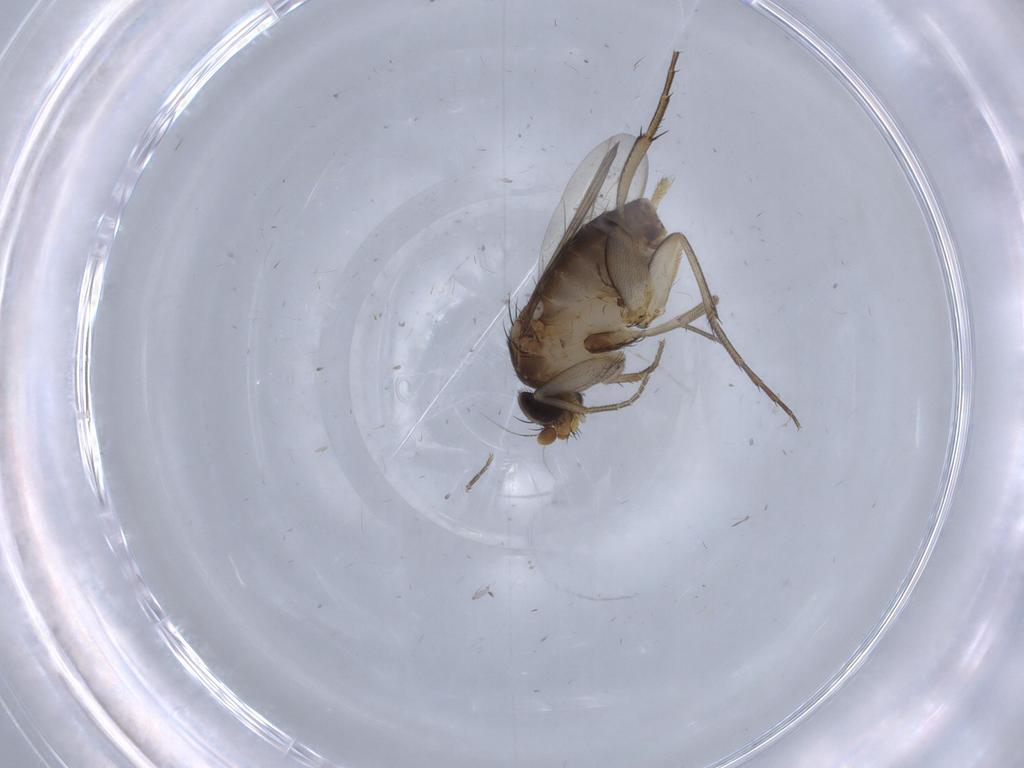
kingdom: Animalia
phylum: Arthropoda
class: Insecta
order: Diptera
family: Phoridae
